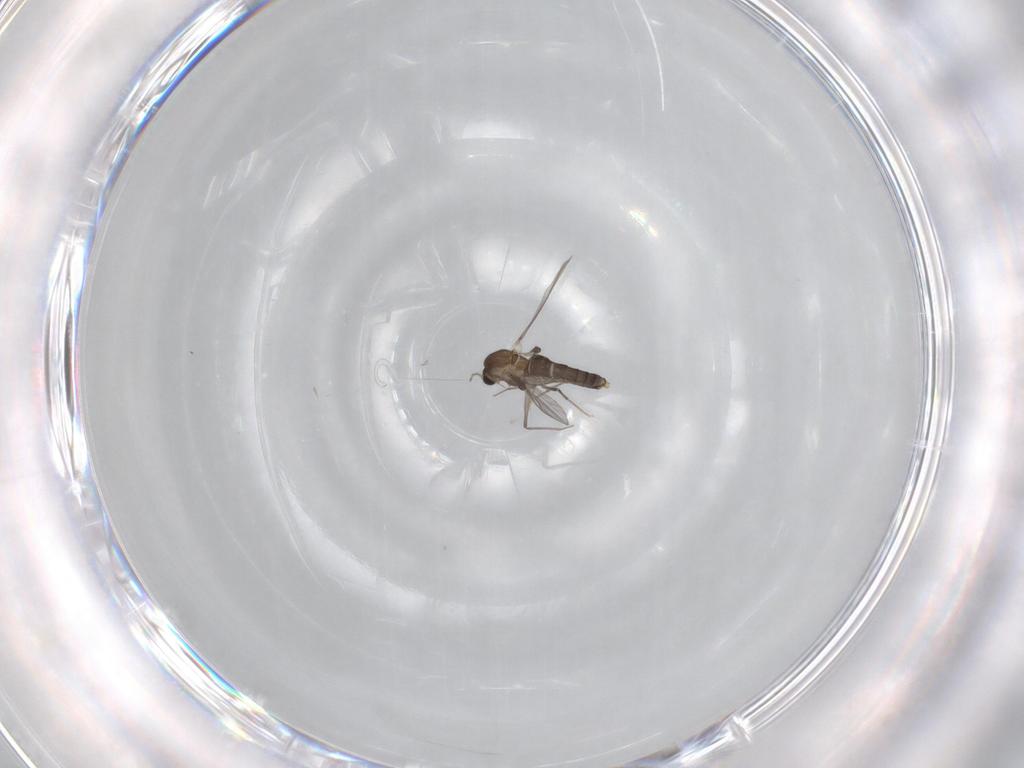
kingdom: Animalia
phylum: Arthropoda
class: Insecta
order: Diptera
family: Chironomidae
